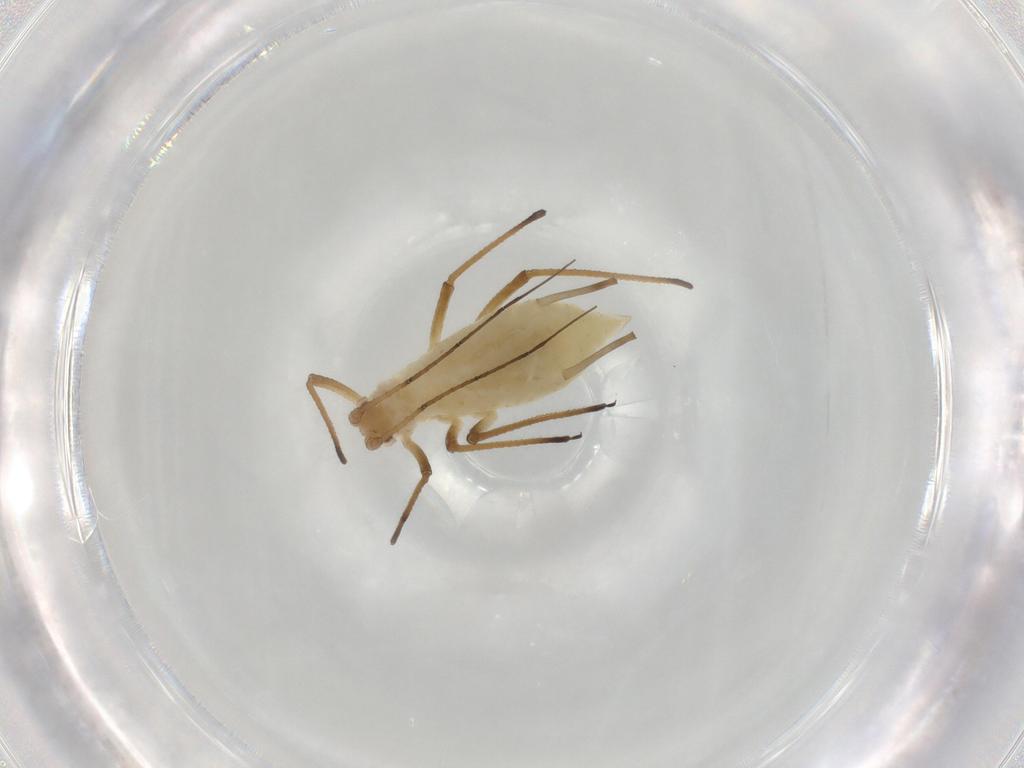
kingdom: Animalia
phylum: Arthropoda
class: Insecta
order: Hemiptera
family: Aphididae
